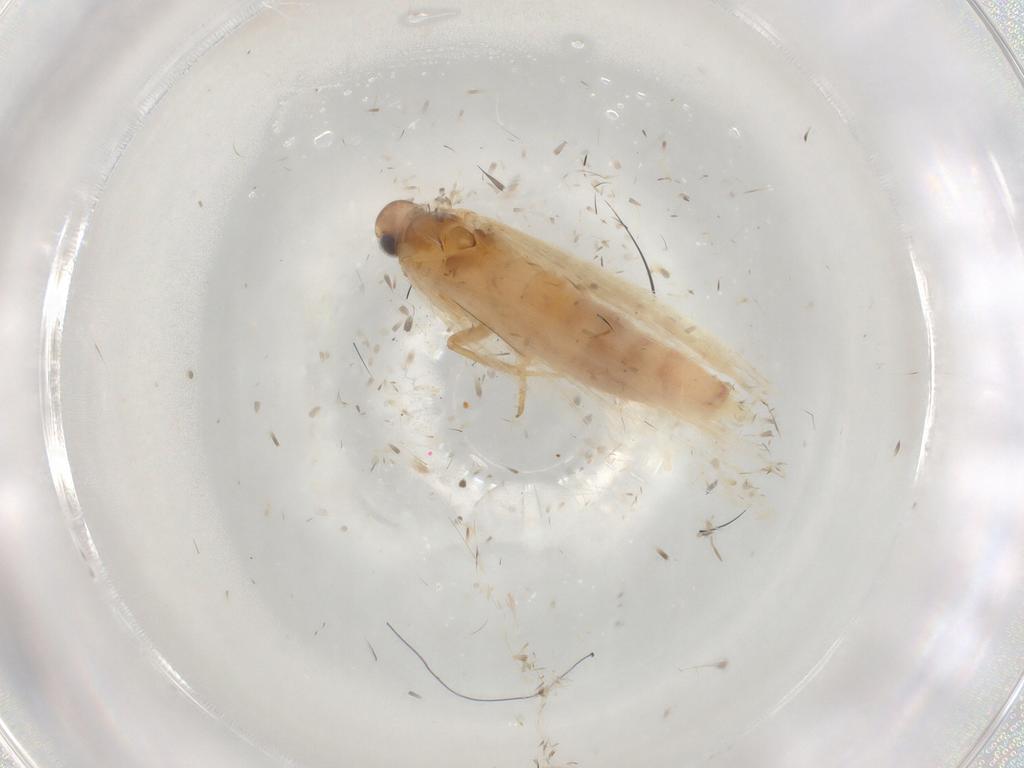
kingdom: Animalia
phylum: Arthropoda
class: Insecta
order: Lepidoptera
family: Gelechiidae
